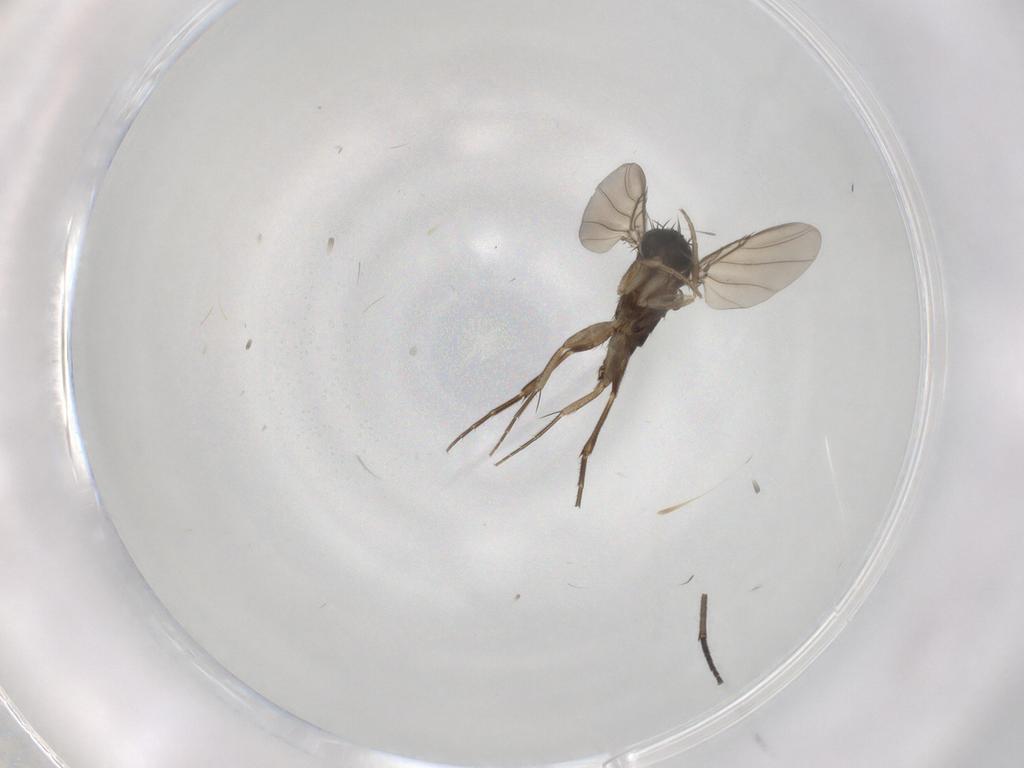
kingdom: Animalia
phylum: Arthropoda
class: Insecta
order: Diptera
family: Phoridae
